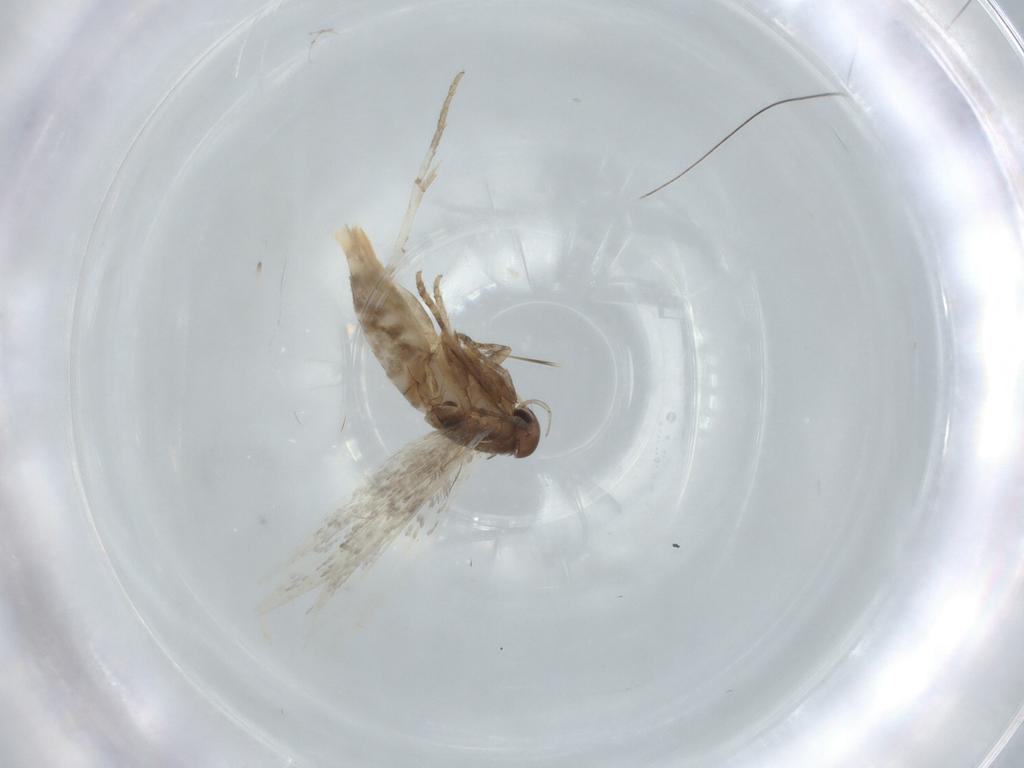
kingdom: Animalia
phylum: Arthropoda
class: Insecta
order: Lepidoptera
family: Elachistidae
